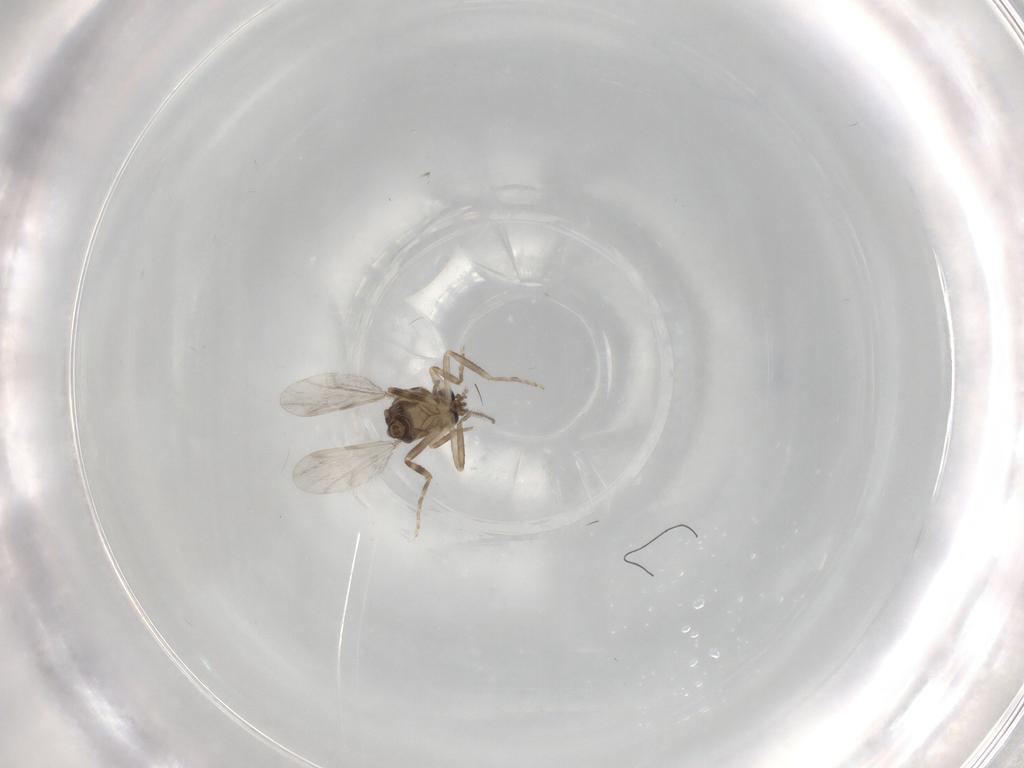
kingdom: Animalia
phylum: Arthropoda
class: Insecta
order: Diptera
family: Ceratopogonidae
